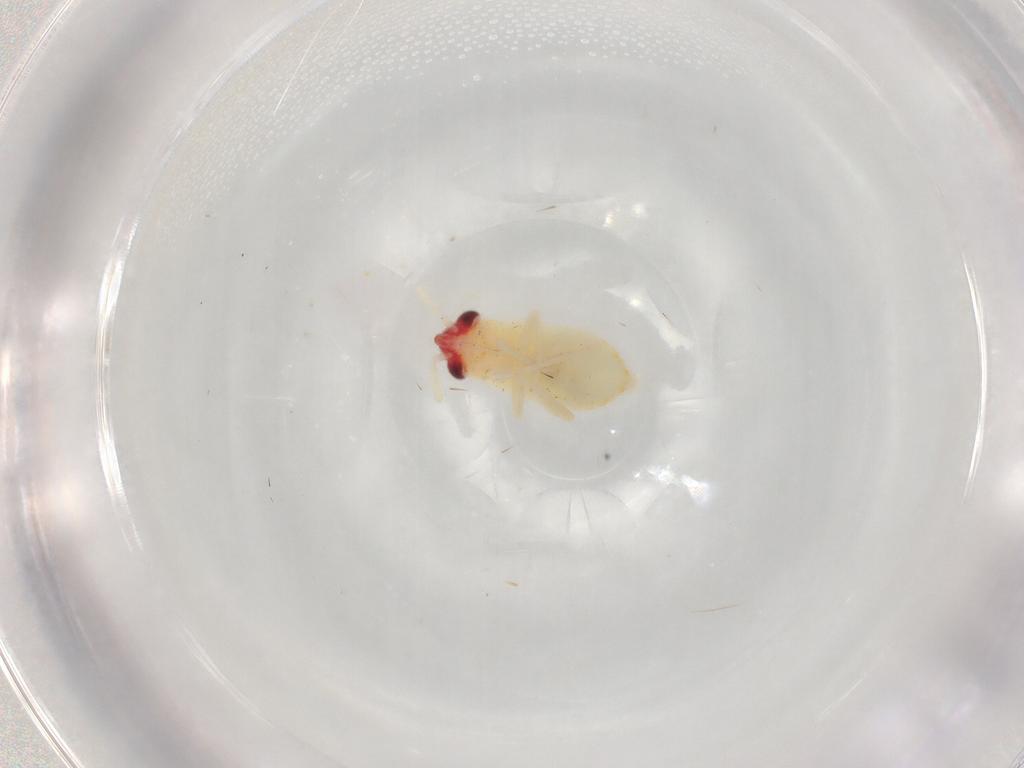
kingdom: Animalia
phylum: Arthropoda
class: Insecta
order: Hemiptera
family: Miridae
